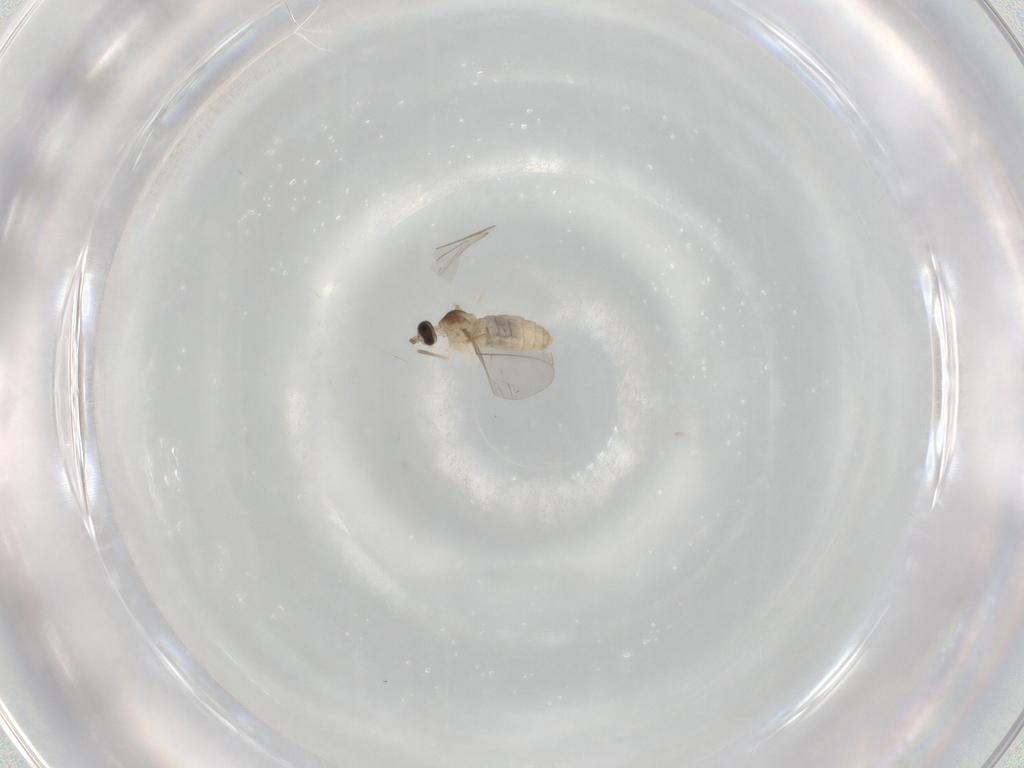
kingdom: Animalia
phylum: Arthropoda
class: Insecta
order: Diptera
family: Cecidomyiidae
